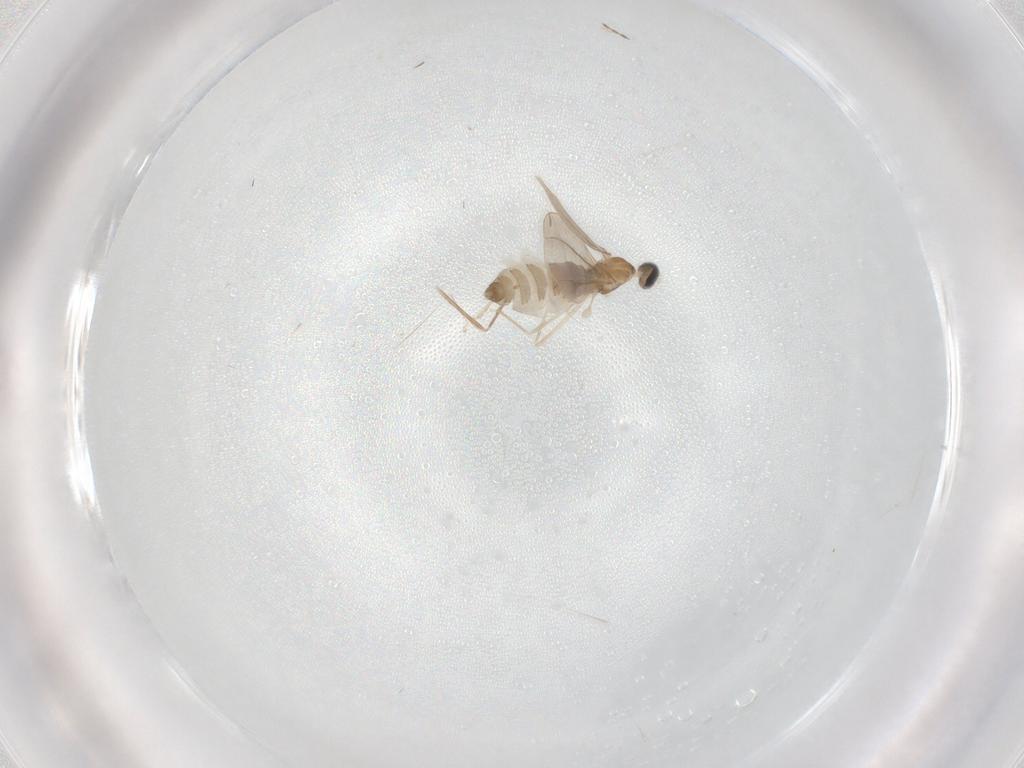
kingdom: Animalia
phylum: Arthropoda
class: Insecta
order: Diptera
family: Cecidomyiidae
